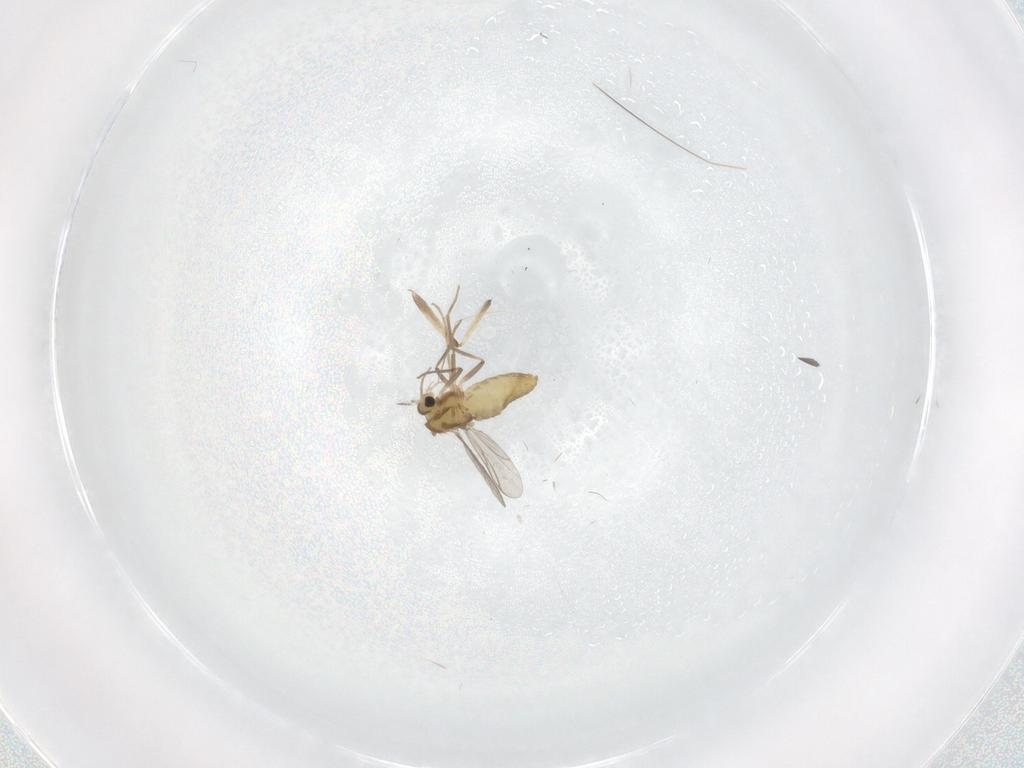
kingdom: Animalia
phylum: Arthropoda
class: Insecta
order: Diptera
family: Chironomidae
